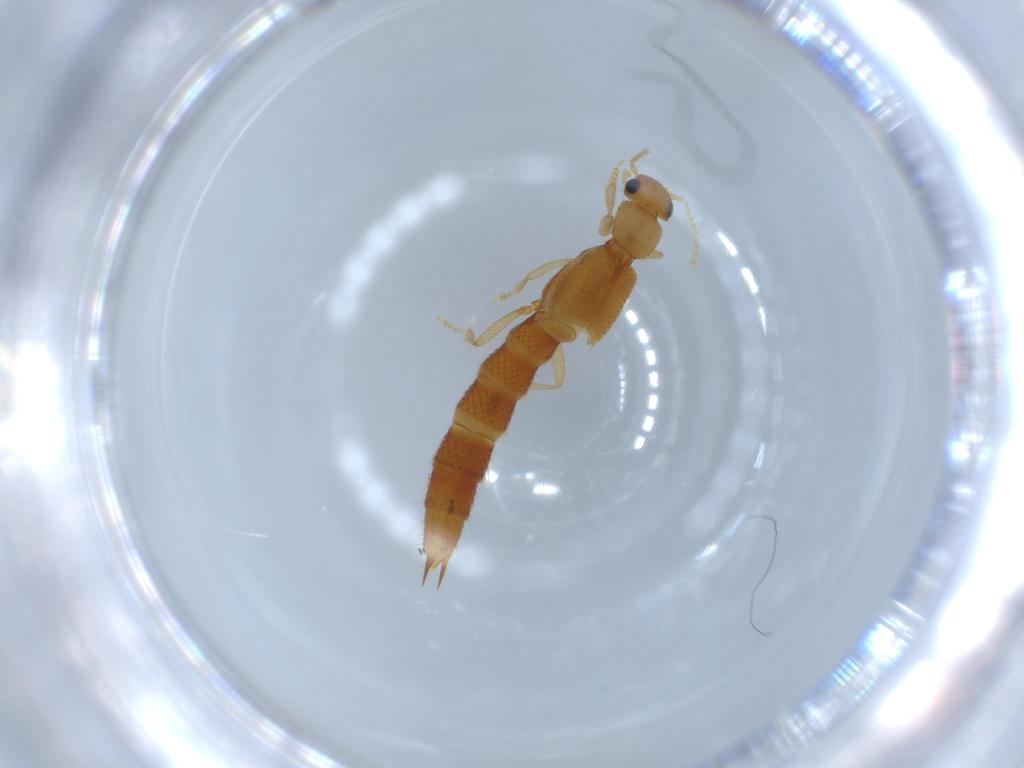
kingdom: Animalia
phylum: Arthropoda
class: Insecta
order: Coleoptera
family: Staphylinidae
